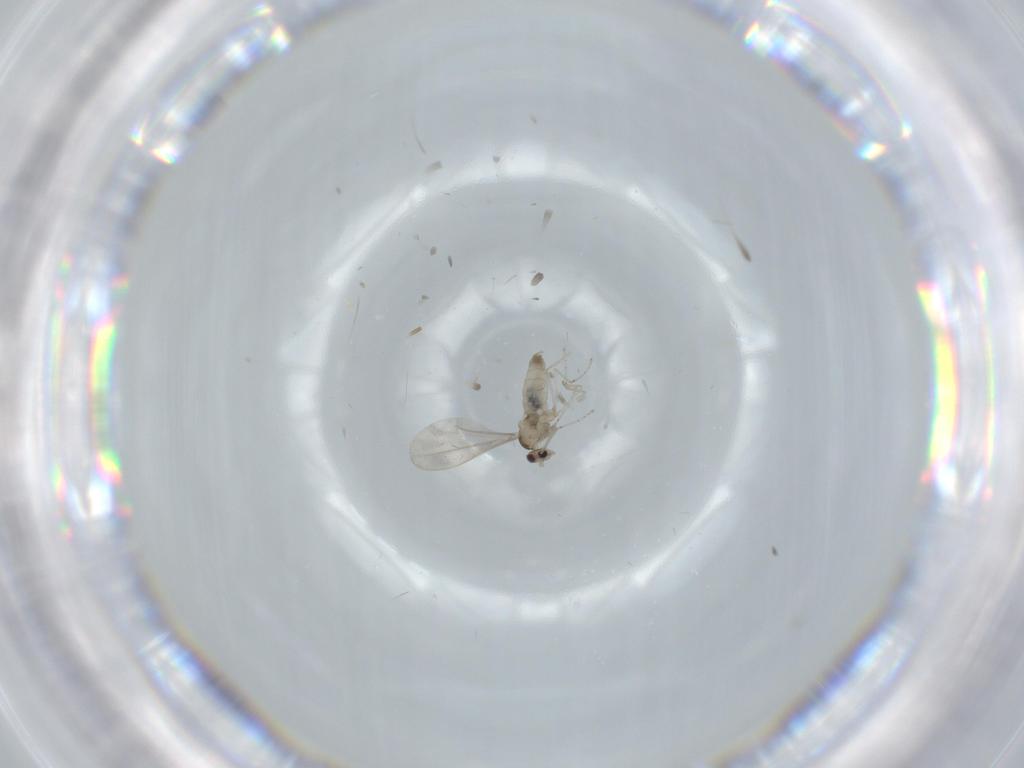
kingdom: Animalia
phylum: Arthropoda
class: Insecta
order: Diptera
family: Cecidomyiidae
